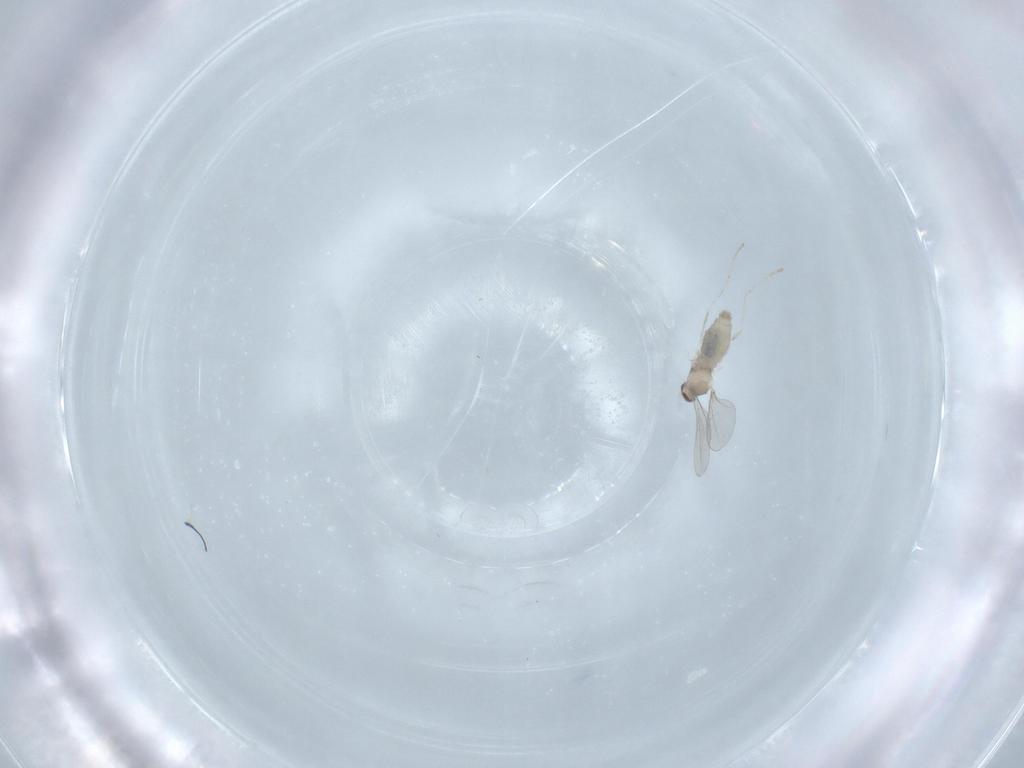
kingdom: Animalia
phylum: Arthropoda
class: Insecta
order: Diptera
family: Cecidomyiidae
